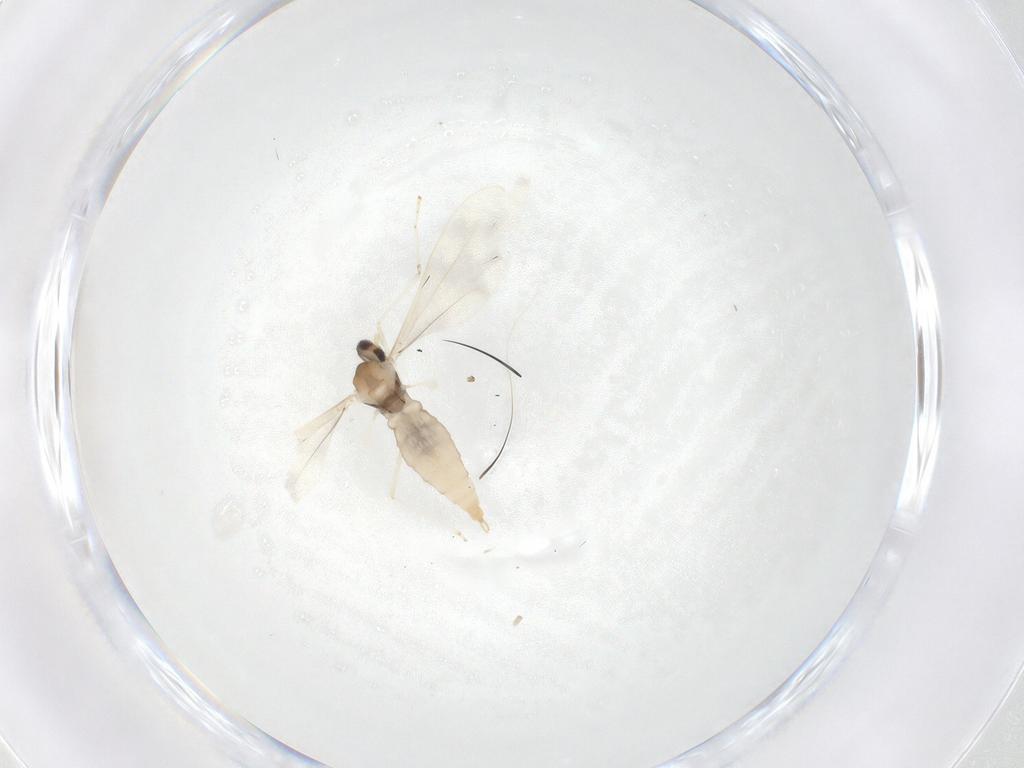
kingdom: Animalia
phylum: Arthropoda
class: Insecta
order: Diptera
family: Cecidomyiidae
